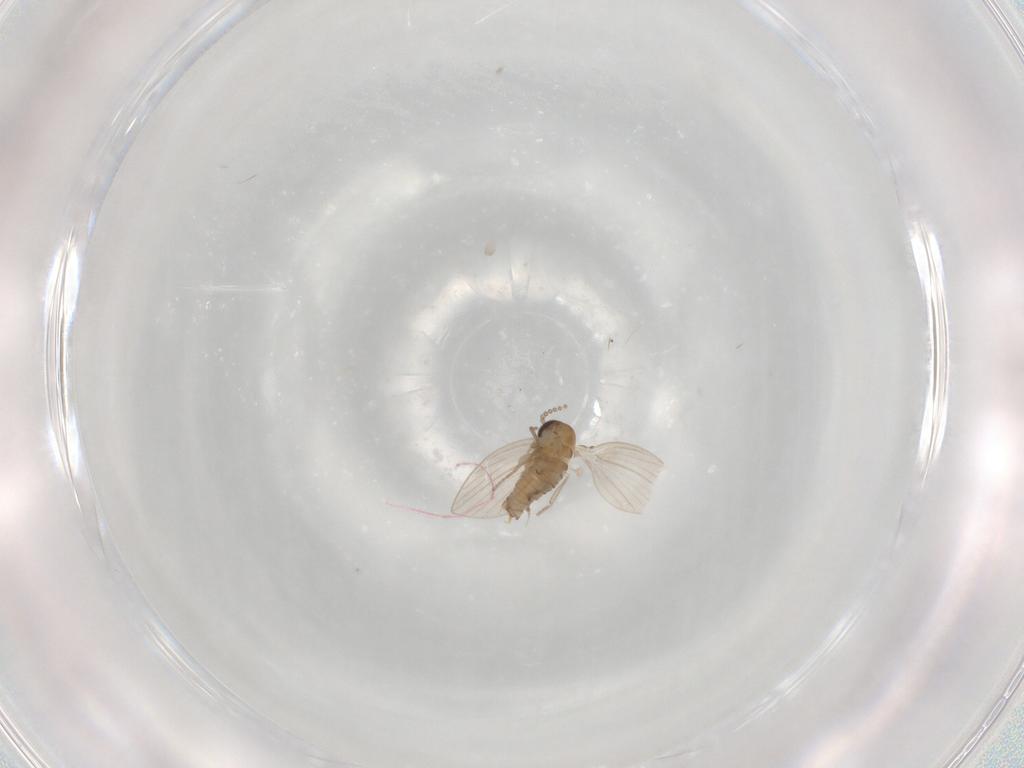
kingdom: Animalia
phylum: Arthropoda
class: Insecta
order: Diptera
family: Psychodidae
